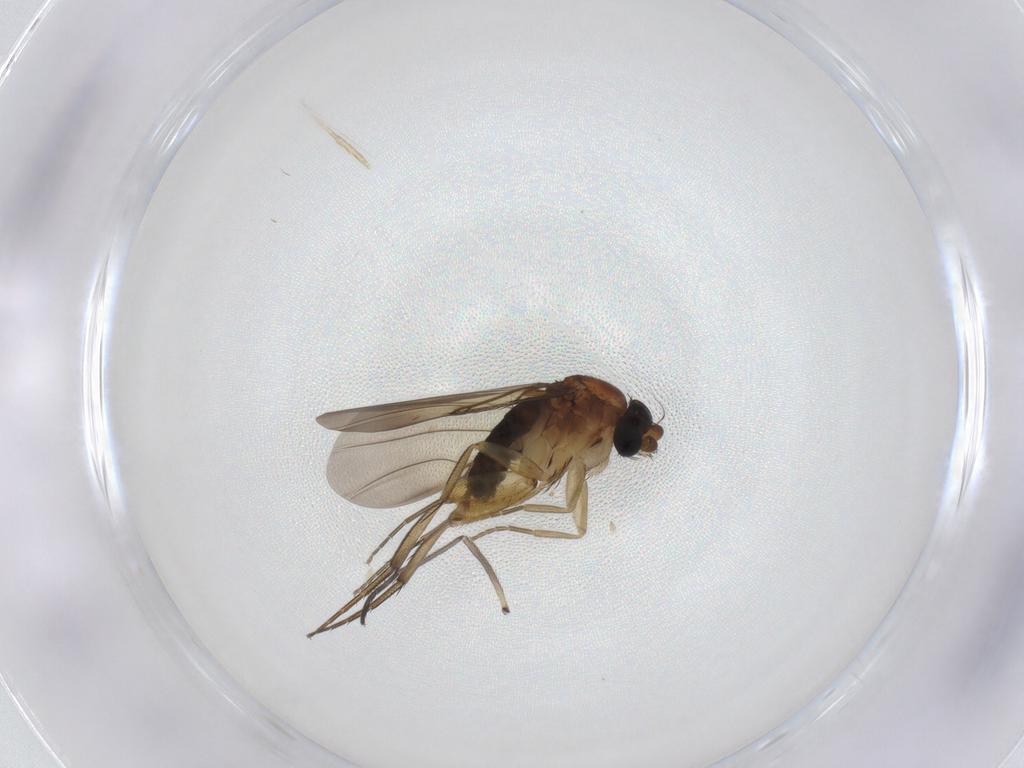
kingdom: Animalia
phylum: Arthropoda
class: Insecta
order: Diptera
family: Phoridae
